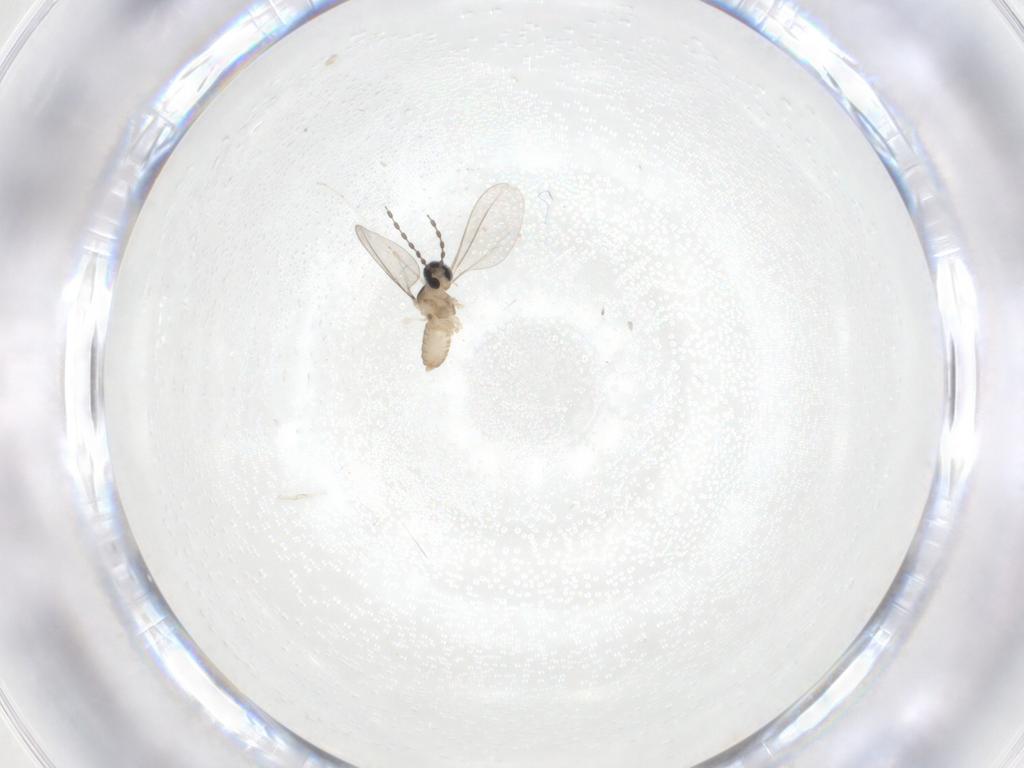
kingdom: Animalia
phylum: Arthropoda
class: Insecta
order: Diptera
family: Cecidomyiidae
